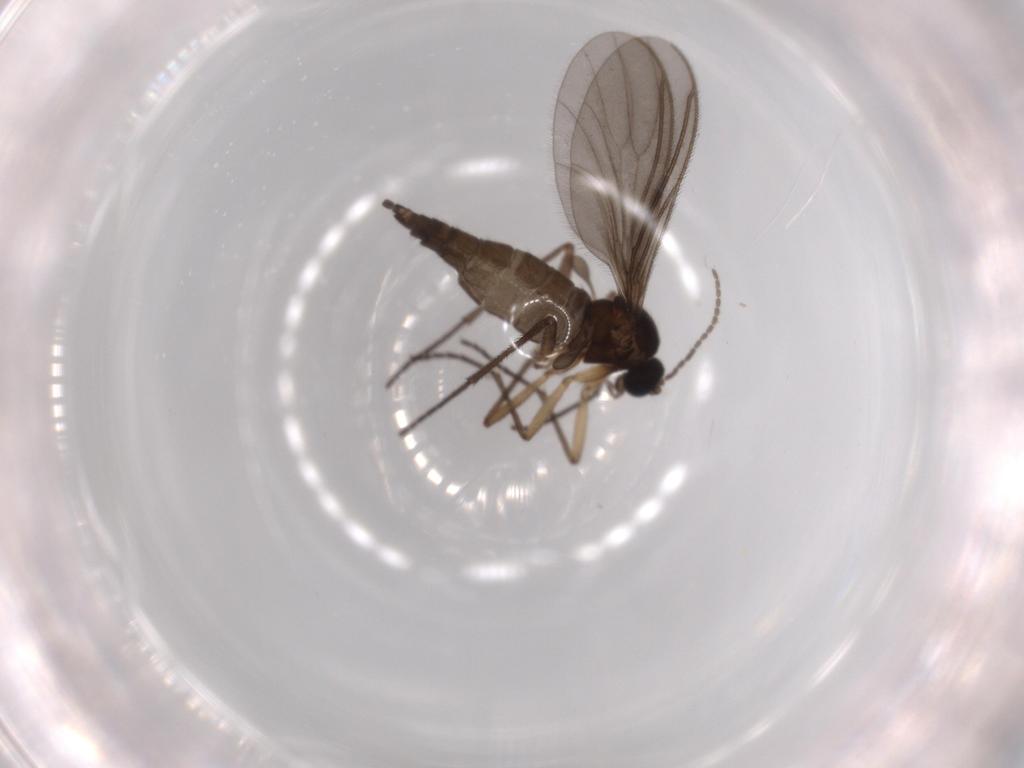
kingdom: Animalia
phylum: Arthropoda
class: Insecta
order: Diptera
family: Sciaridae
